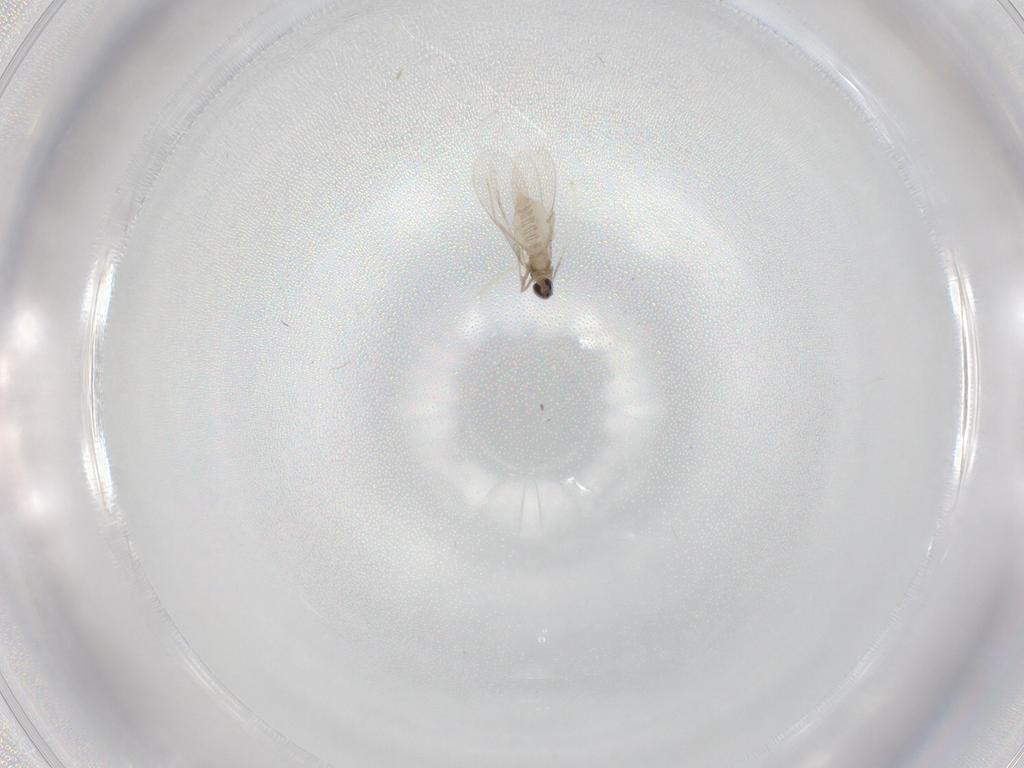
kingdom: Animalia
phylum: Arthropoda
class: Insecta
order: Diptera
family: Cecidomyiidae
